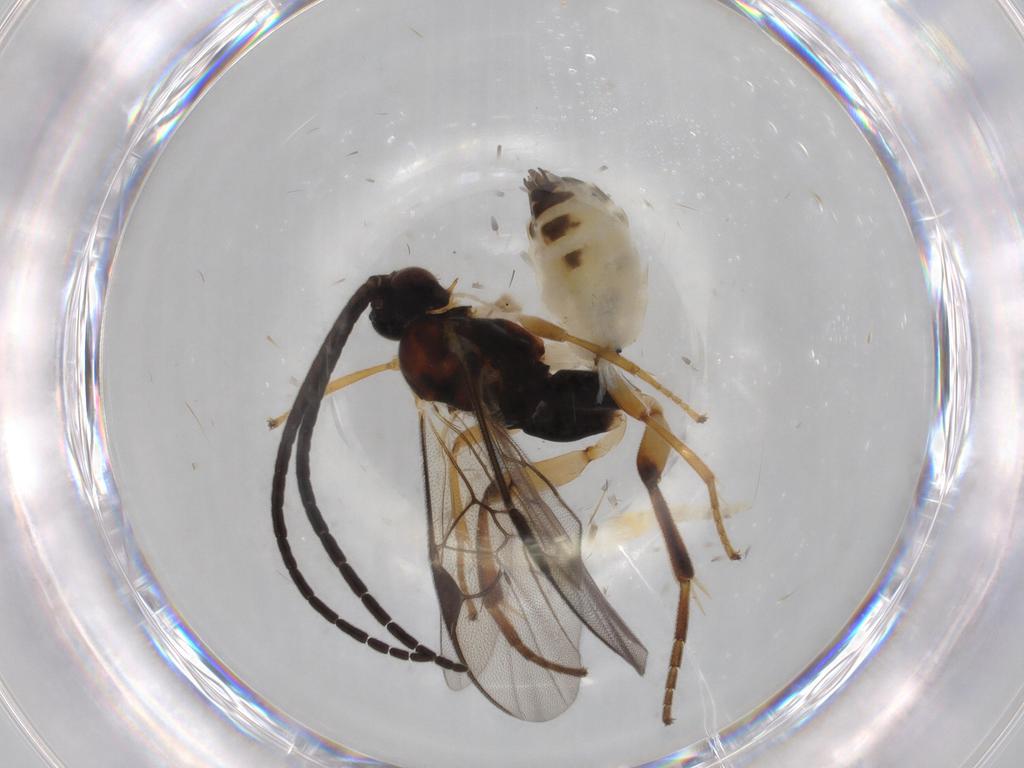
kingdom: Animalia
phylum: Arthropoda
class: Insecta
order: Hymenoptera
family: Braconidae
